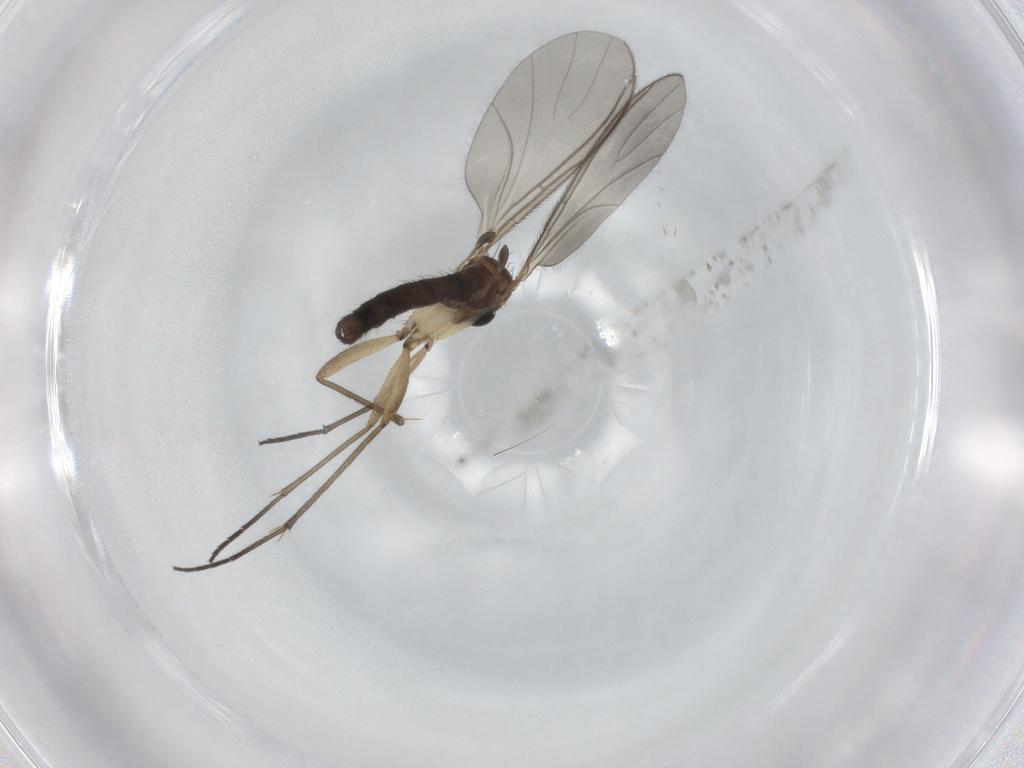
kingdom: Animalia
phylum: Arthropoda
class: Insecta
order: Diptera
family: Sciaridae
